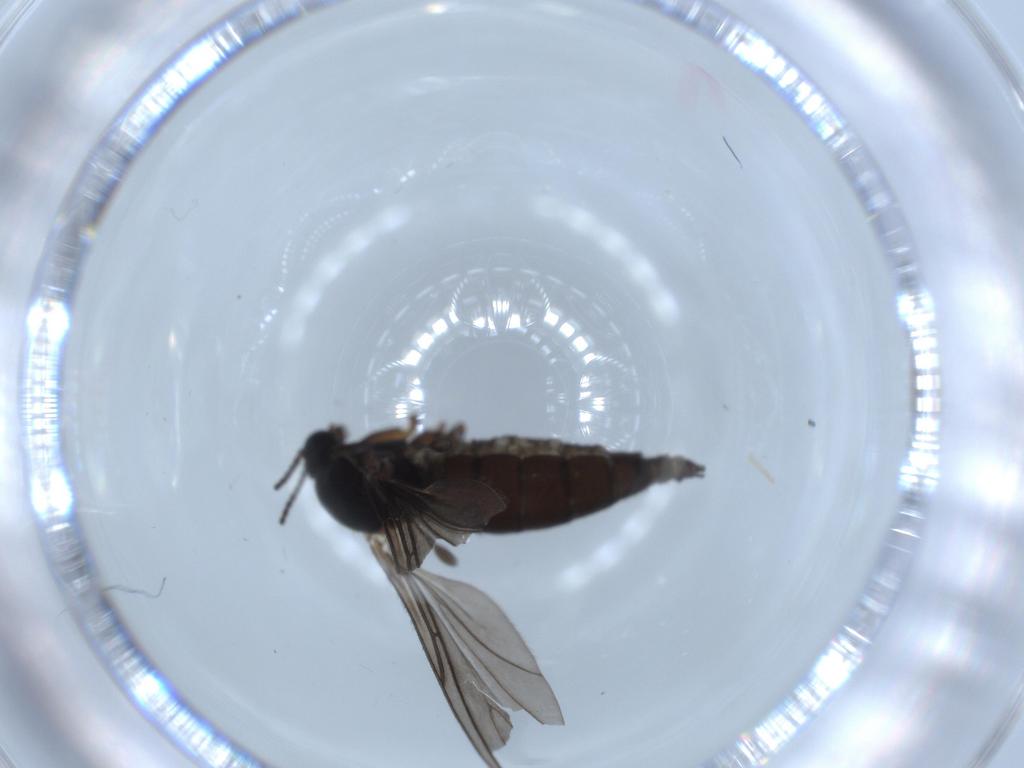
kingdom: Animalia
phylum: Arthropoda
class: Insecta
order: Diptera
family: Sciaridae
